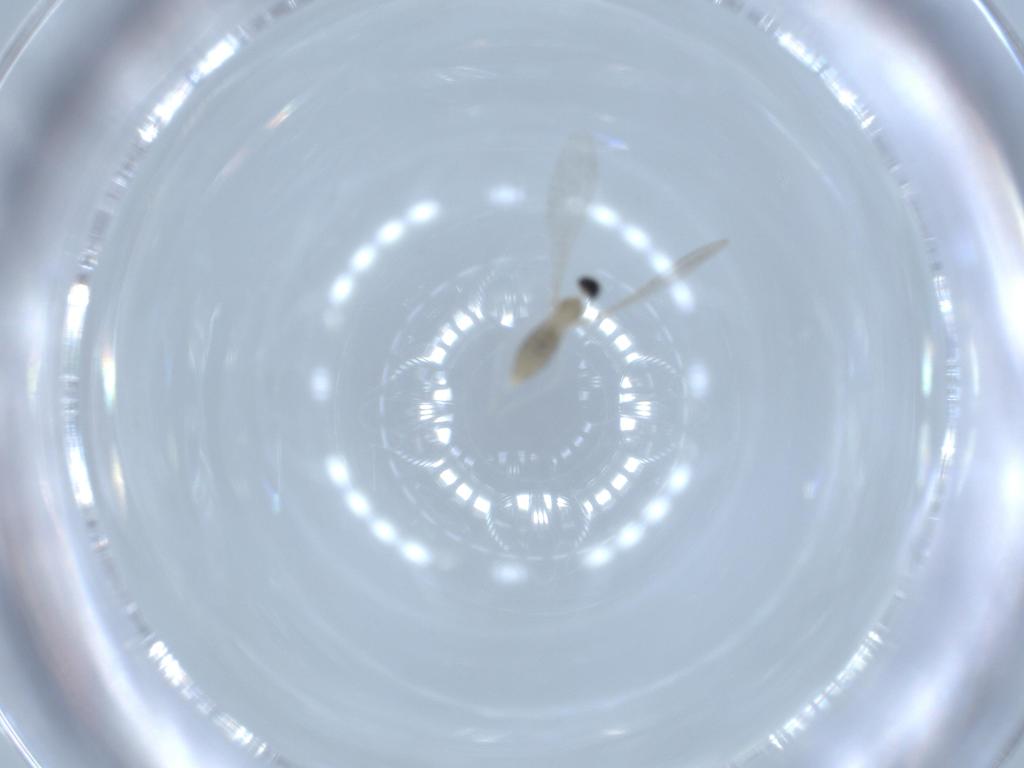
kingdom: Animalia
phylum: Arthropoda
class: Insecta
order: Diptera
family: Cecidomyiidae
